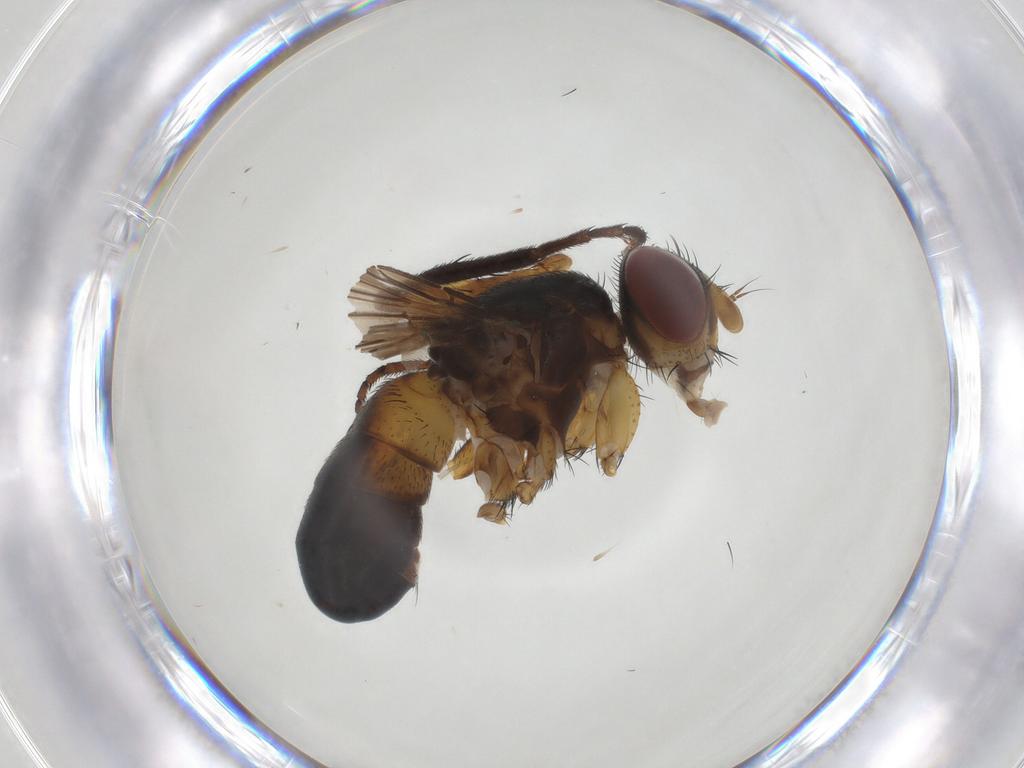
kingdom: Animalia
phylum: Arthropoda
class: Insecta
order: Diptera
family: Tachinidae
